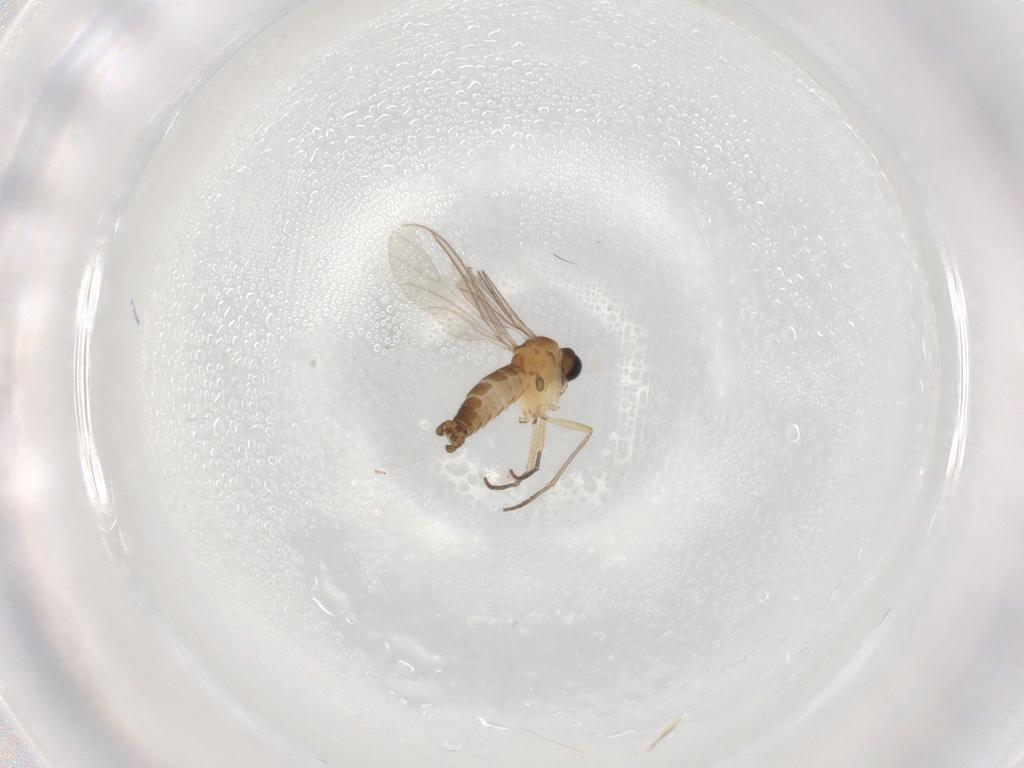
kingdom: Animalia
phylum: Arthropoda
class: Insecta
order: Diptera
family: Sciaridae
